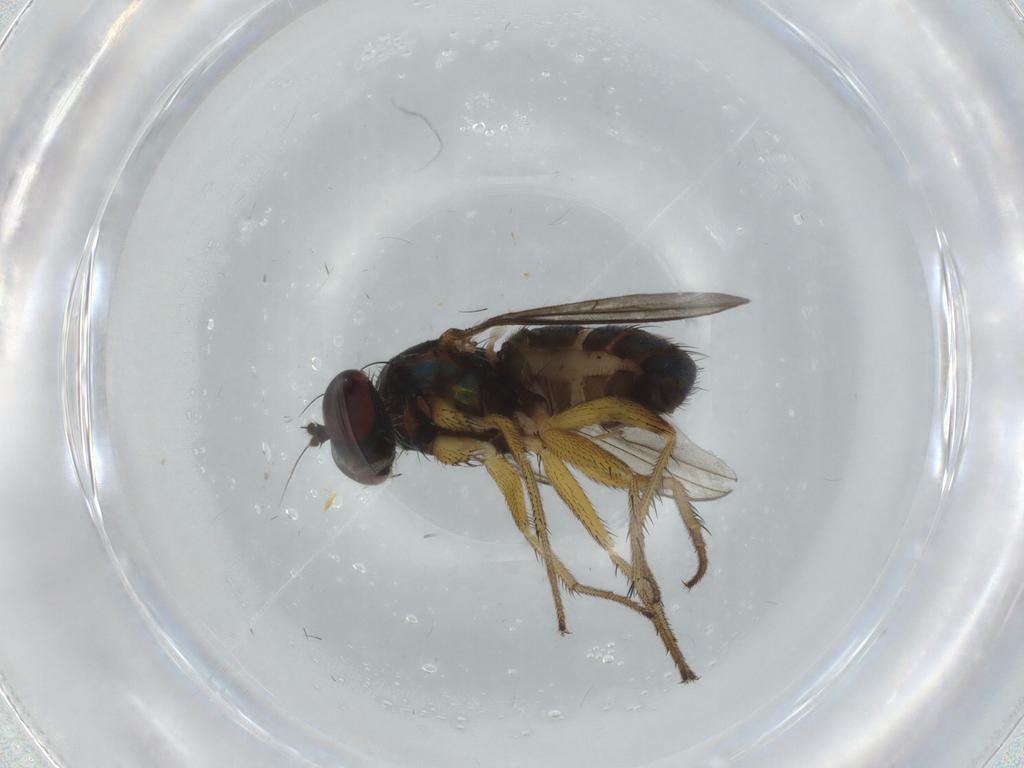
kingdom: Animalia
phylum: Arthropoda
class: Insecta
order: Diptera
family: Dolichopodidae
